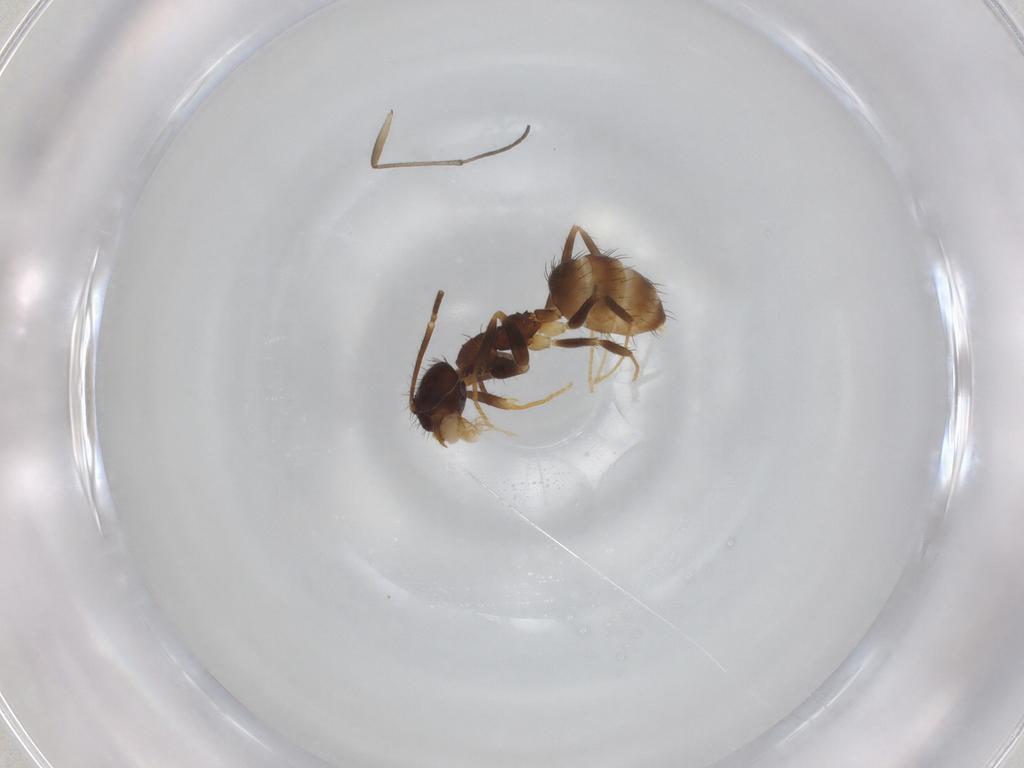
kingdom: Animalia
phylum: Arthropoda
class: Insecta
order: Hymenoptera
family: Formicidae
